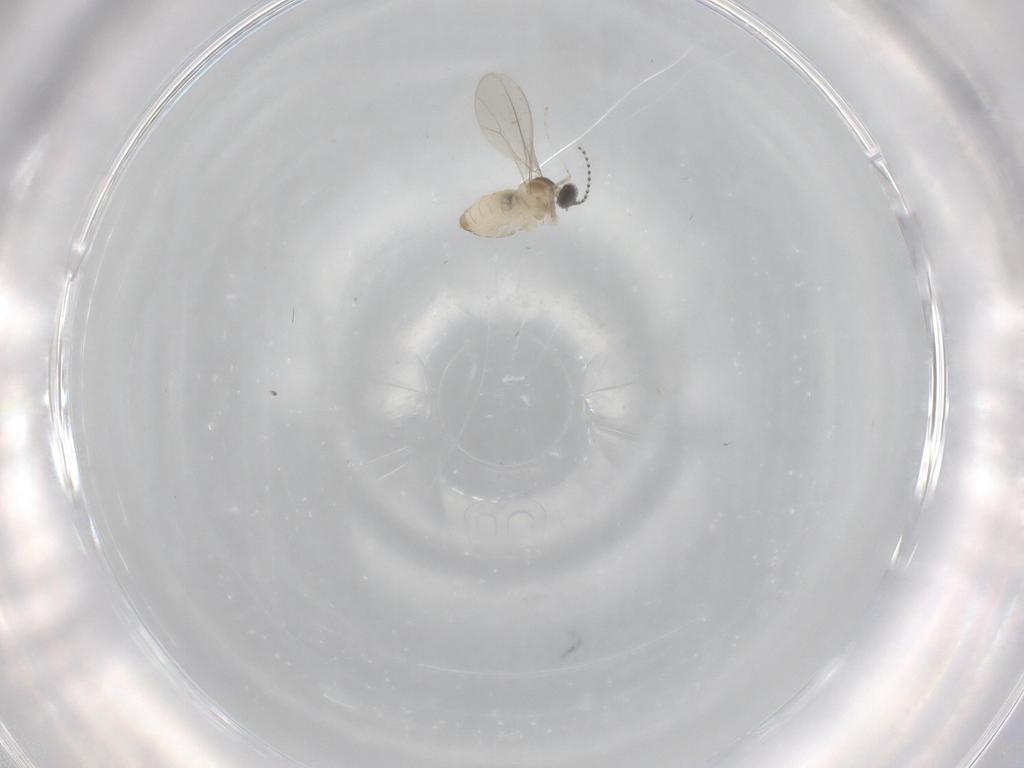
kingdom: Animalia
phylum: Arthropoda
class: Insecta
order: Diptera
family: Cecidomyiidae
